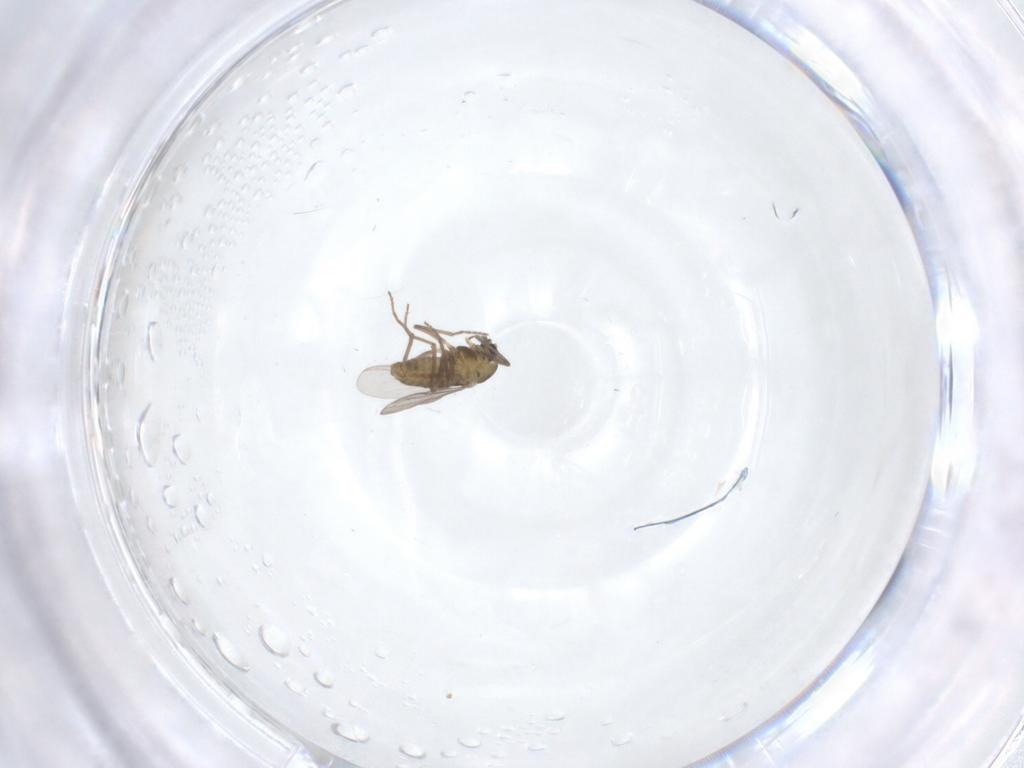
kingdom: Animalia
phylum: Arthropoda
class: Insecta
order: Diptera
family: Chironomidae
